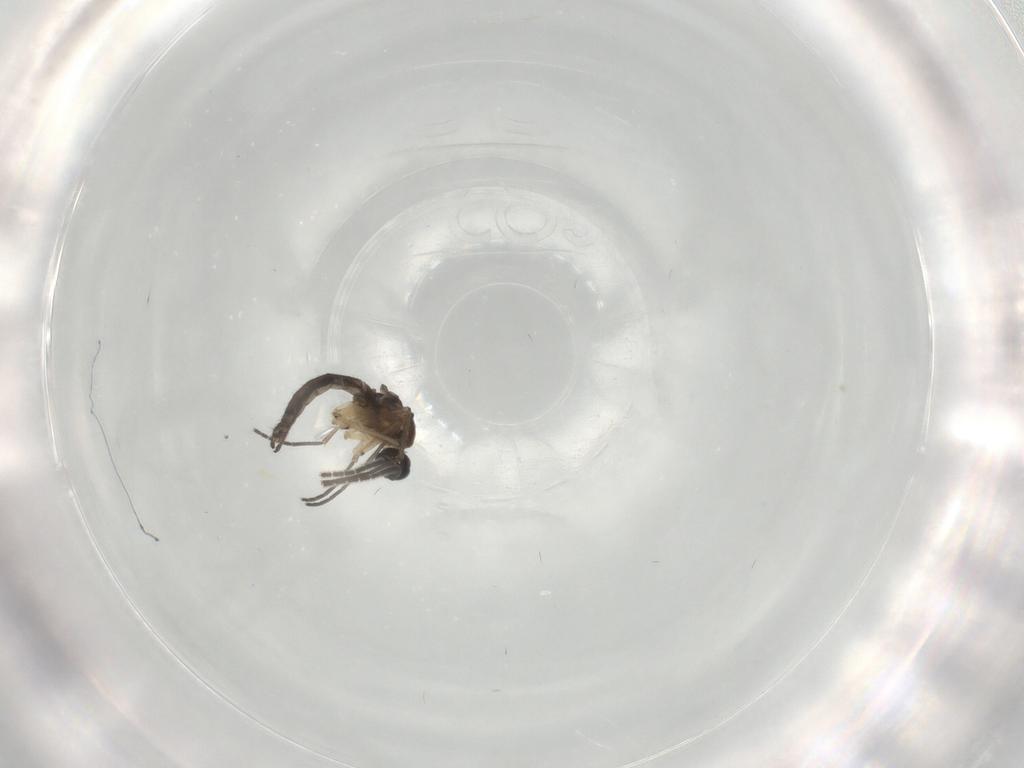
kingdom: Animalia
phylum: Arthropoda
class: Insecta
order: Diptera
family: Sciaridae
